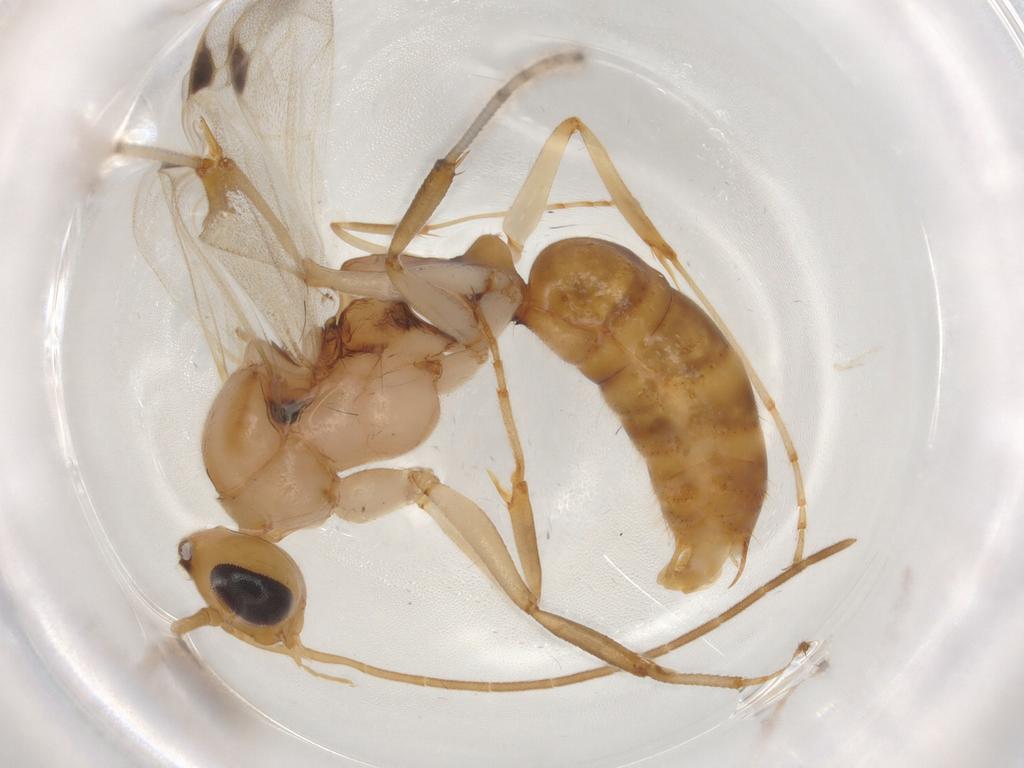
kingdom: Animalia
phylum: Arthropoda
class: Insecta
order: Hymenoptera
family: Formicidae
